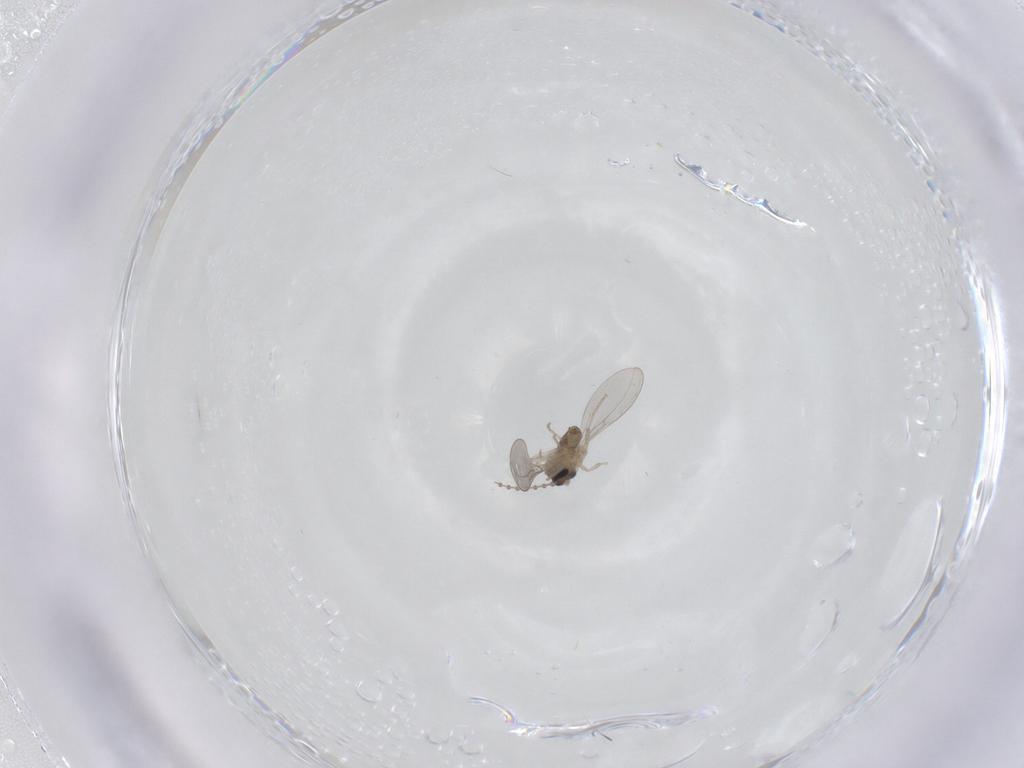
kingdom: Animalia
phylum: Arthropoda
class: Insecta
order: Diptera
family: Cecidomyiidae
